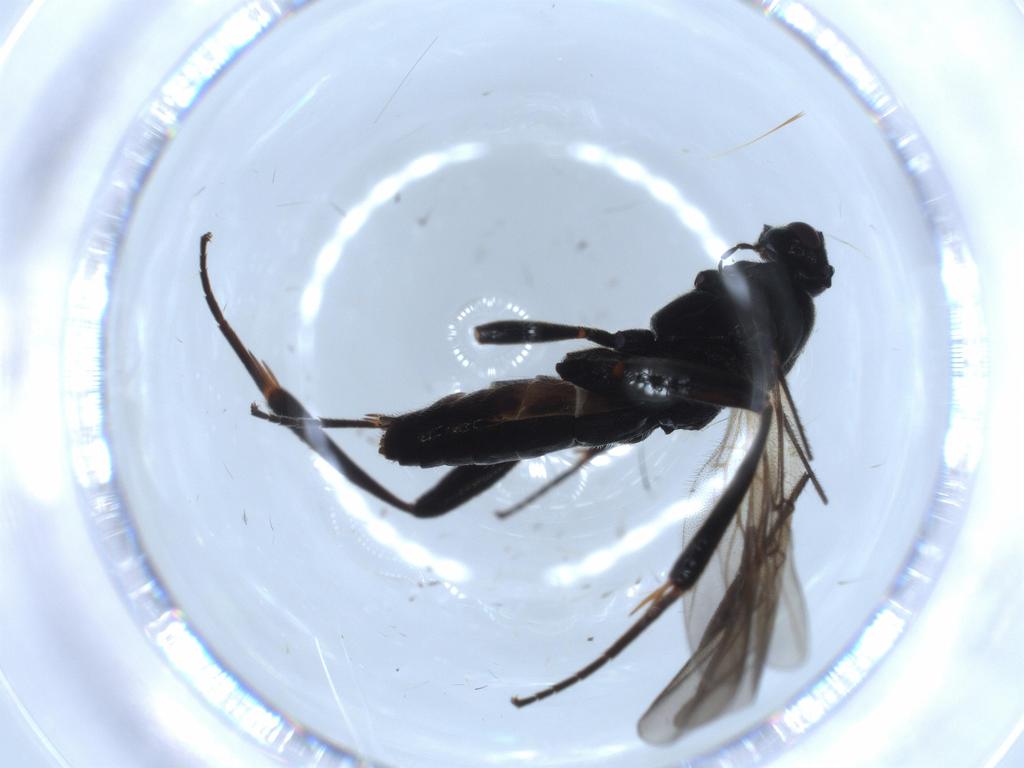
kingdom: Animalia
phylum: Arthropoda
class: Insecta
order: Hymenoptera
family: Braconidae
